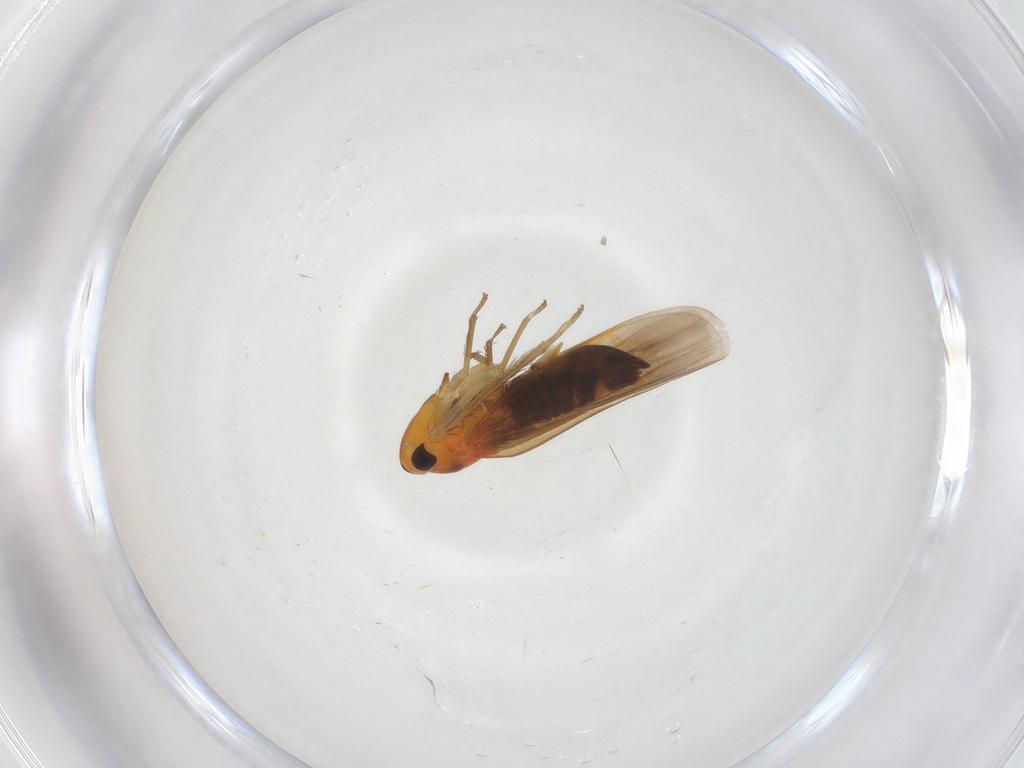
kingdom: Animalia
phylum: Arthropoda
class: Insecta
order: Hemiptera
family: Cicadellidae
